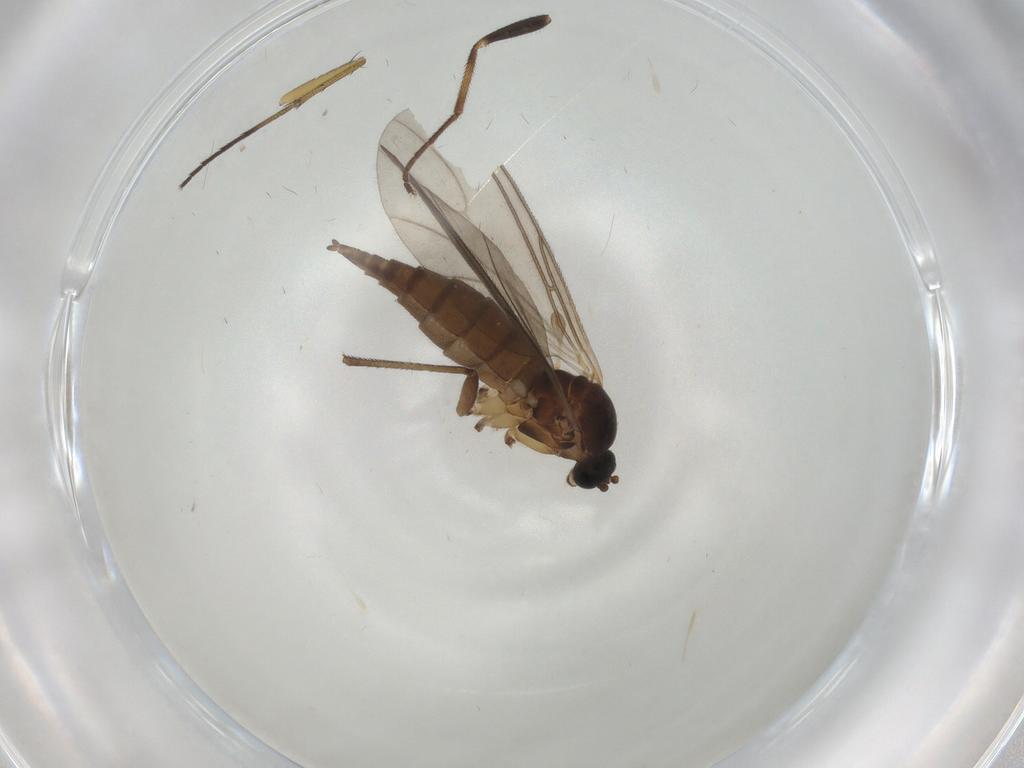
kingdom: Animalia
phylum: Arthropoda
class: Insecta
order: Diptera
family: Sciaridae
